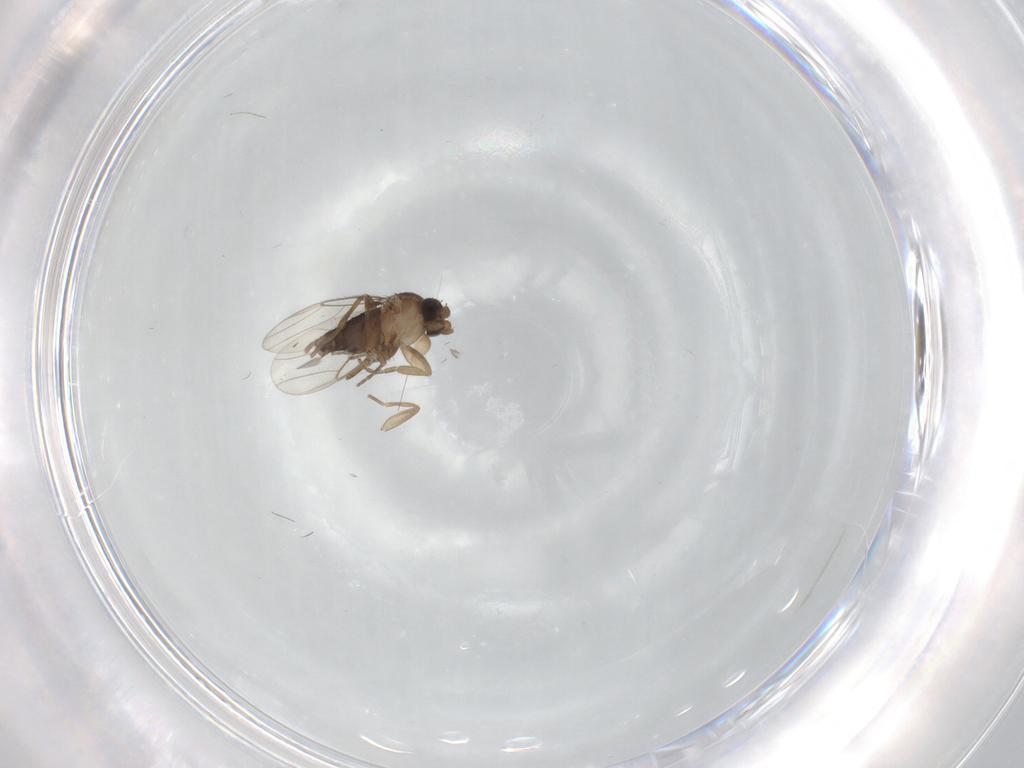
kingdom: Animalia
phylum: Arthropoda
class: Insecta
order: Diptera
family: Phoridae
